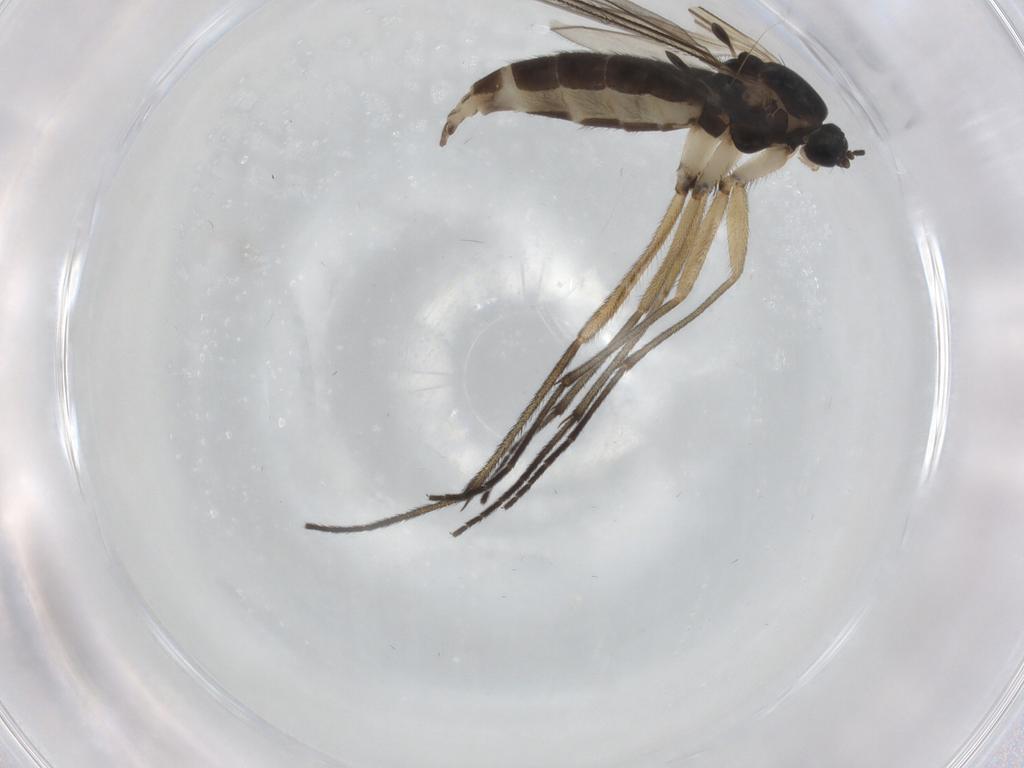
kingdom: Animalia
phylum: Arthropoda
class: Insecta
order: Diptera
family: Sciaridae
